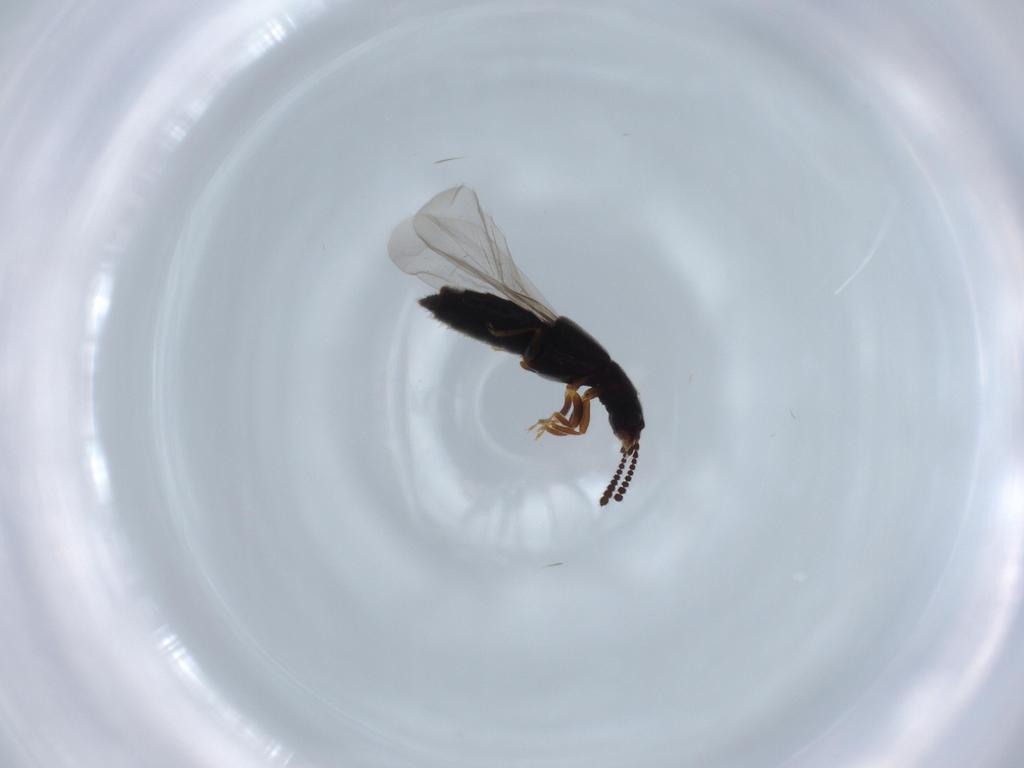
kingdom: Animalia
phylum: Arthropoda
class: Insecta
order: Coleoptera
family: Staphylinidae
